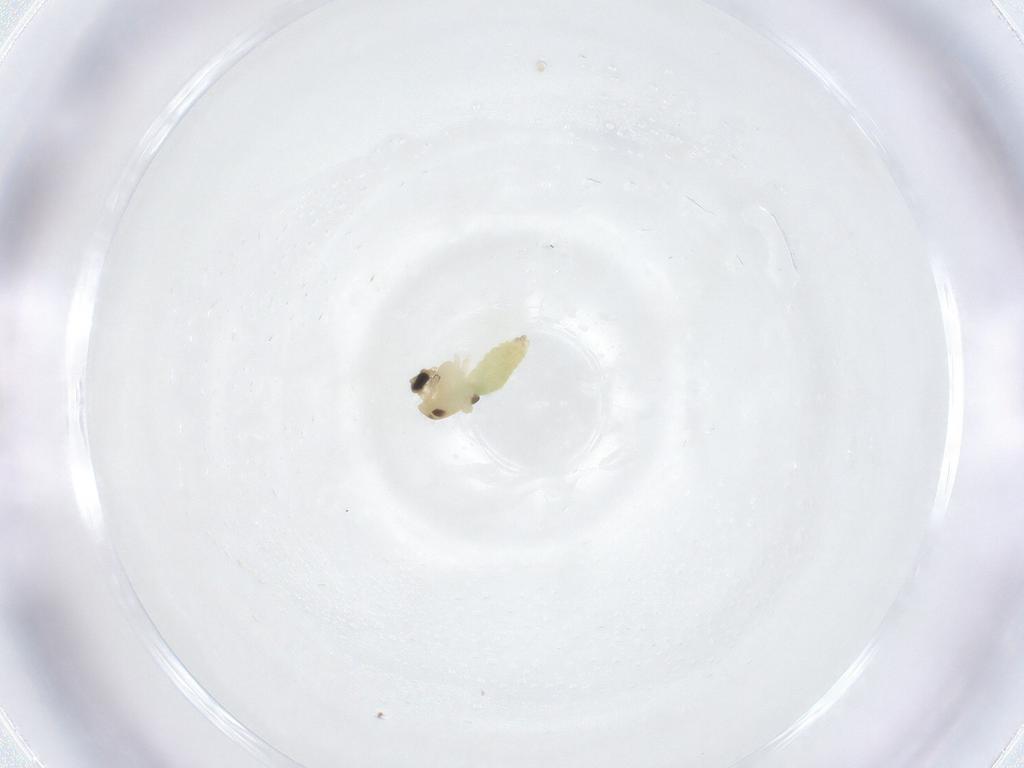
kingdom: Animalia
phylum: Arthropoda
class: Insecta
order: Diptera
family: Chironomidae
